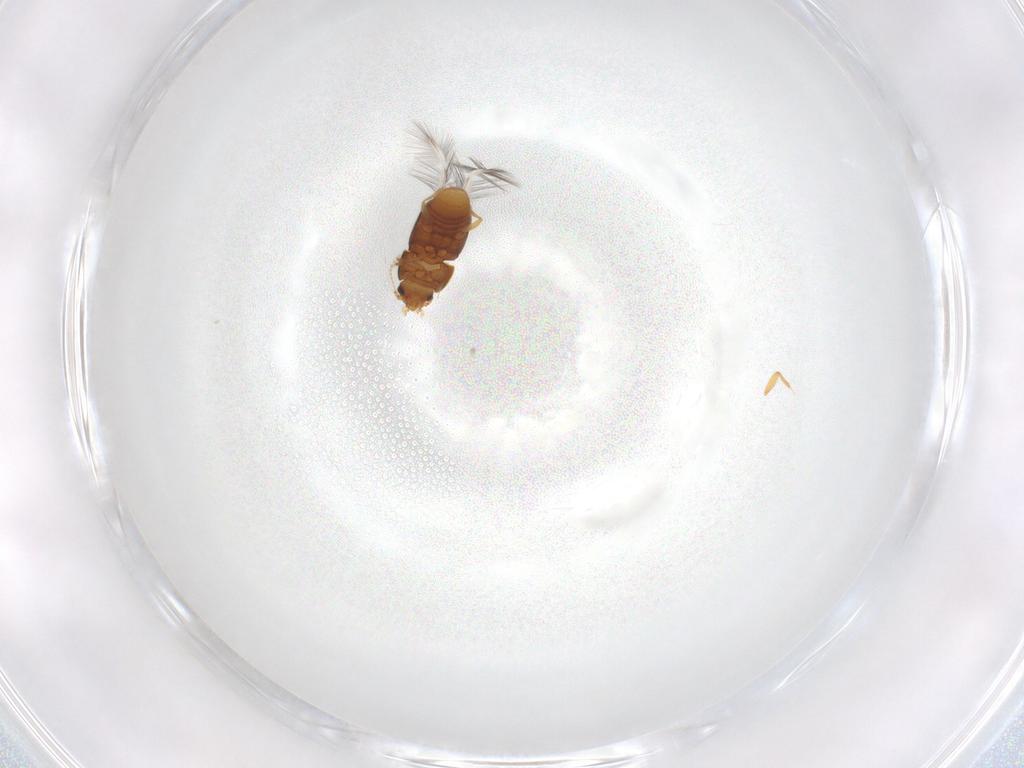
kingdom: Animalia
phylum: Arthropoda
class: Insecta
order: Coleoptera
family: Ptiliidae
